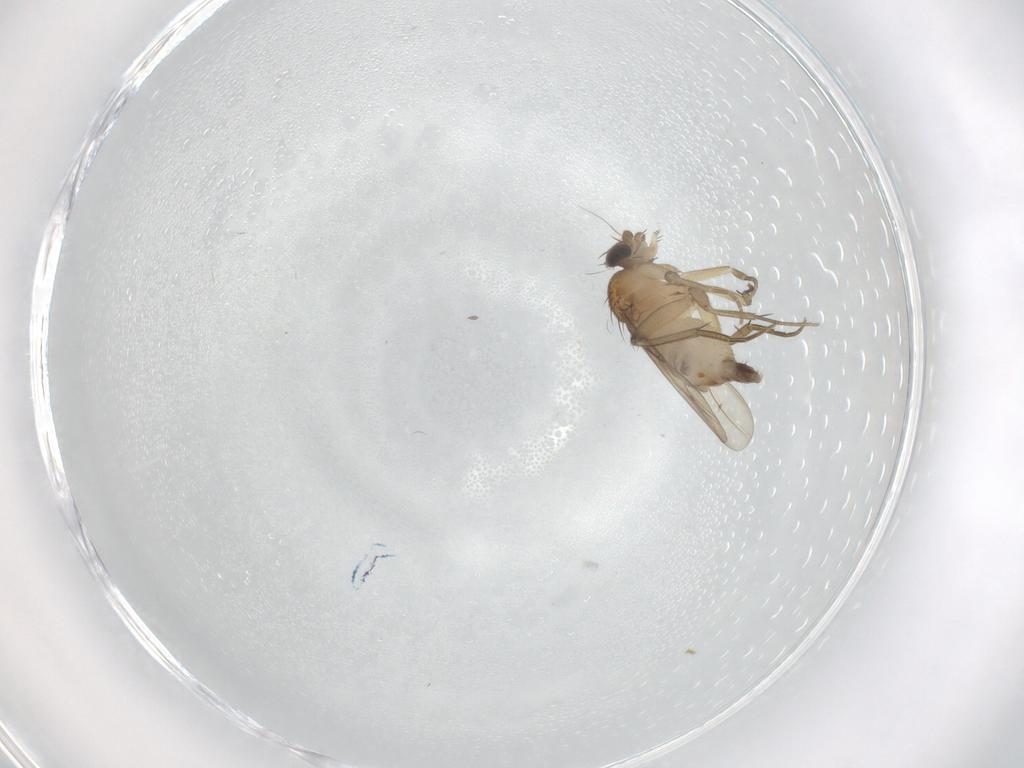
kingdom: Animalia
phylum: Arthropoda
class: Insecta
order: Diptera
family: Phoridae
